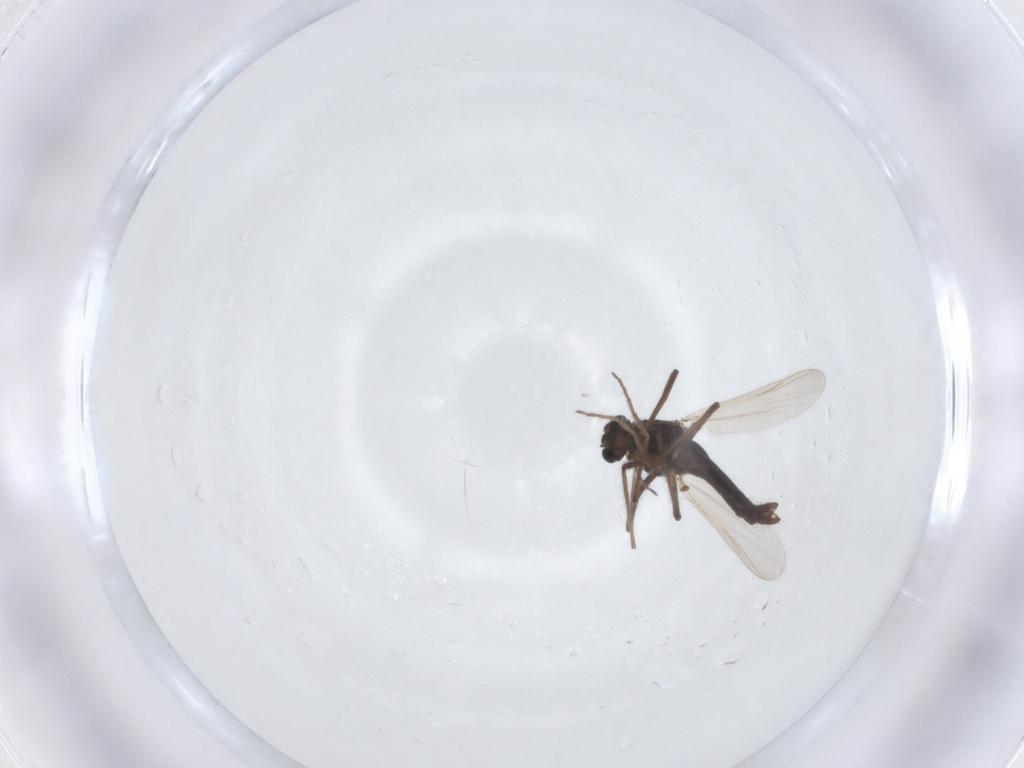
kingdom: Animalia
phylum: Arthropoda
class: Insecta
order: Diptera
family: Chironomidae
